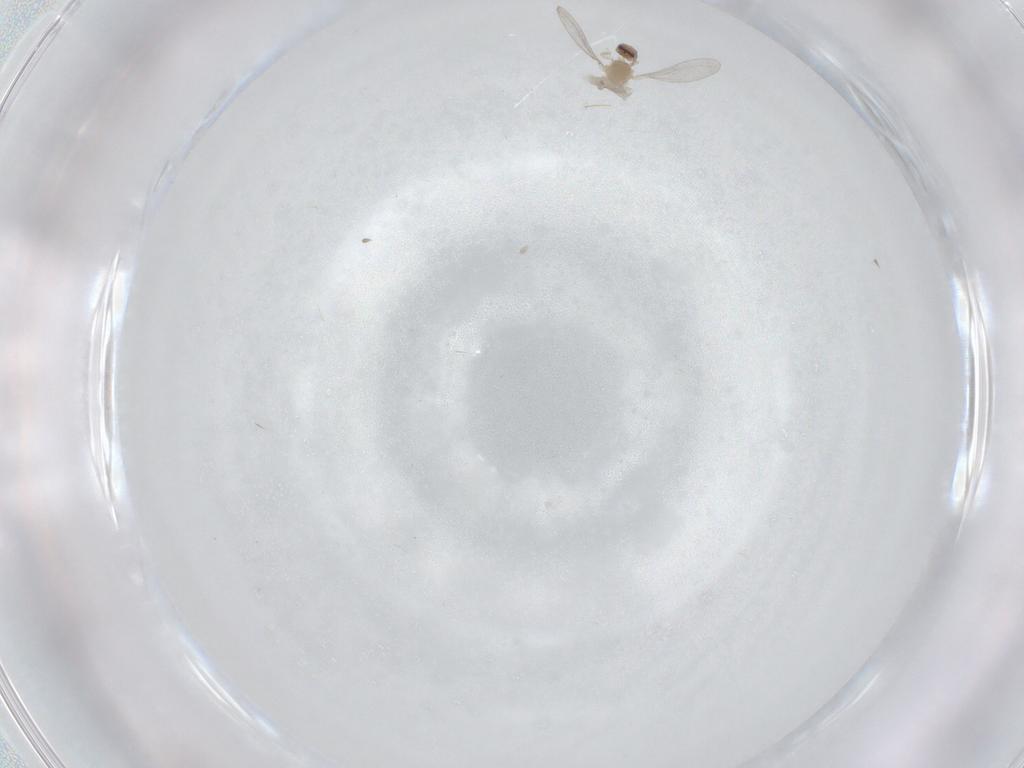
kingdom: Animalia
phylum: Arthropoda
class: Insecta
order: Diptera
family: Cecidomyiidae
